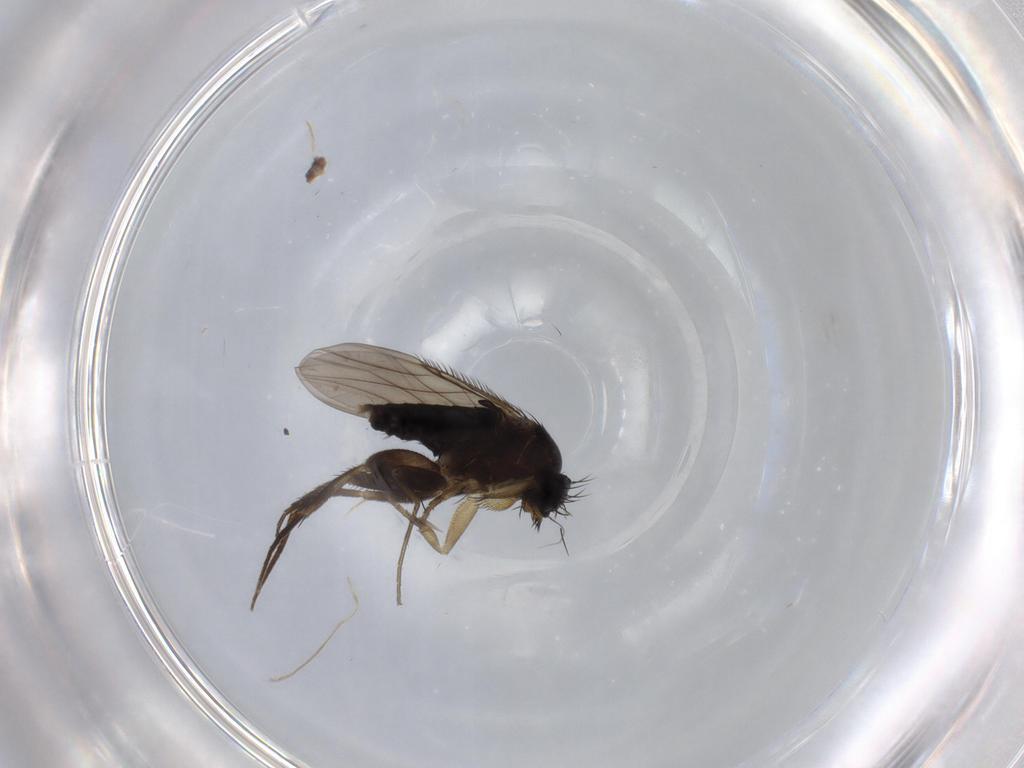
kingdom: Animalia
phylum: Arthropoda
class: Insecta
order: Diptera
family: Phoridae
